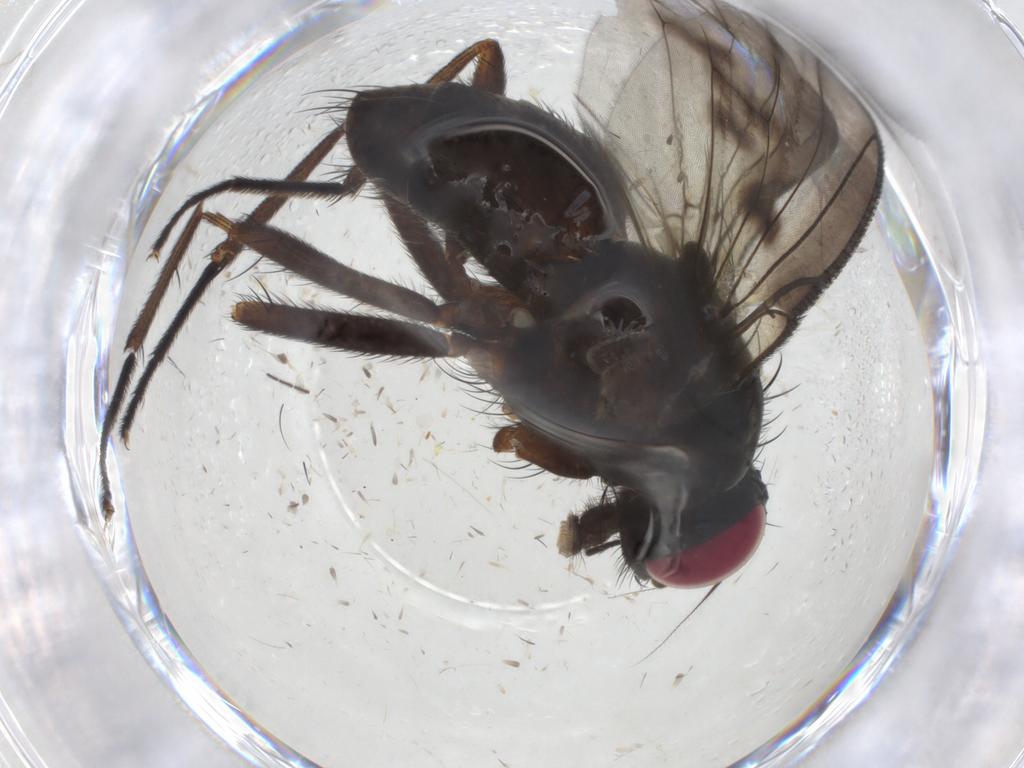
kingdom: Animalia
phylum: Arthropoda
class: Insecta
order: Diptera
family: Muscidae
